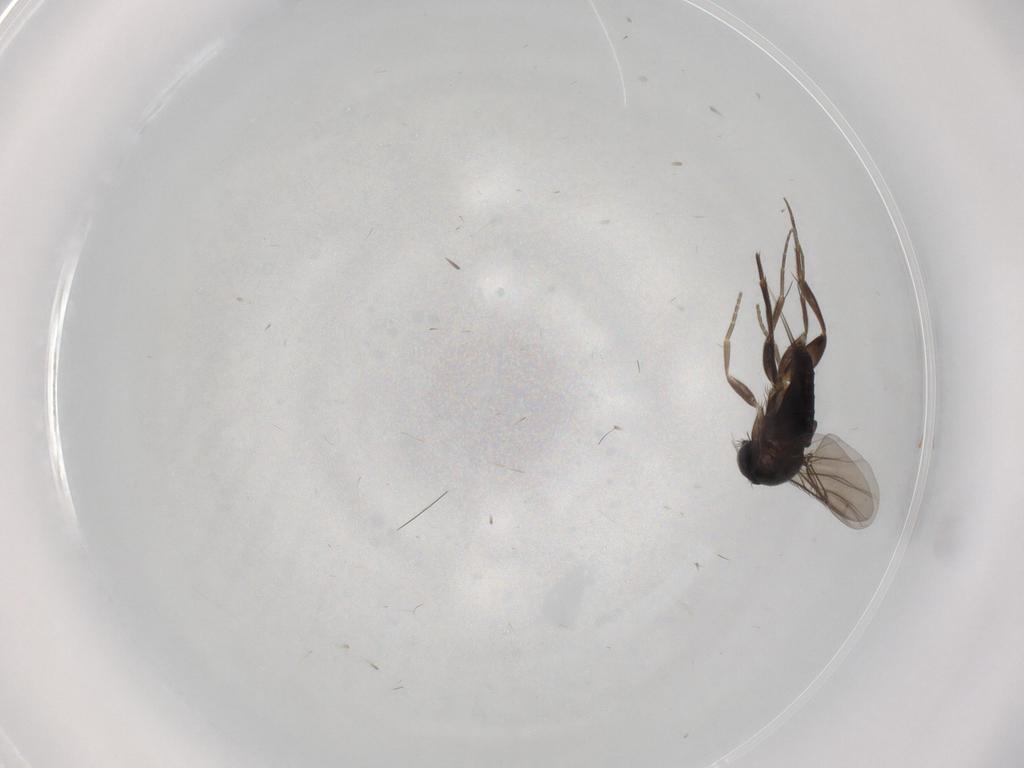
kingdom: Animalia
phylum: Arthropoda
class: Insecta
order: Diptera
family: Phoridae
